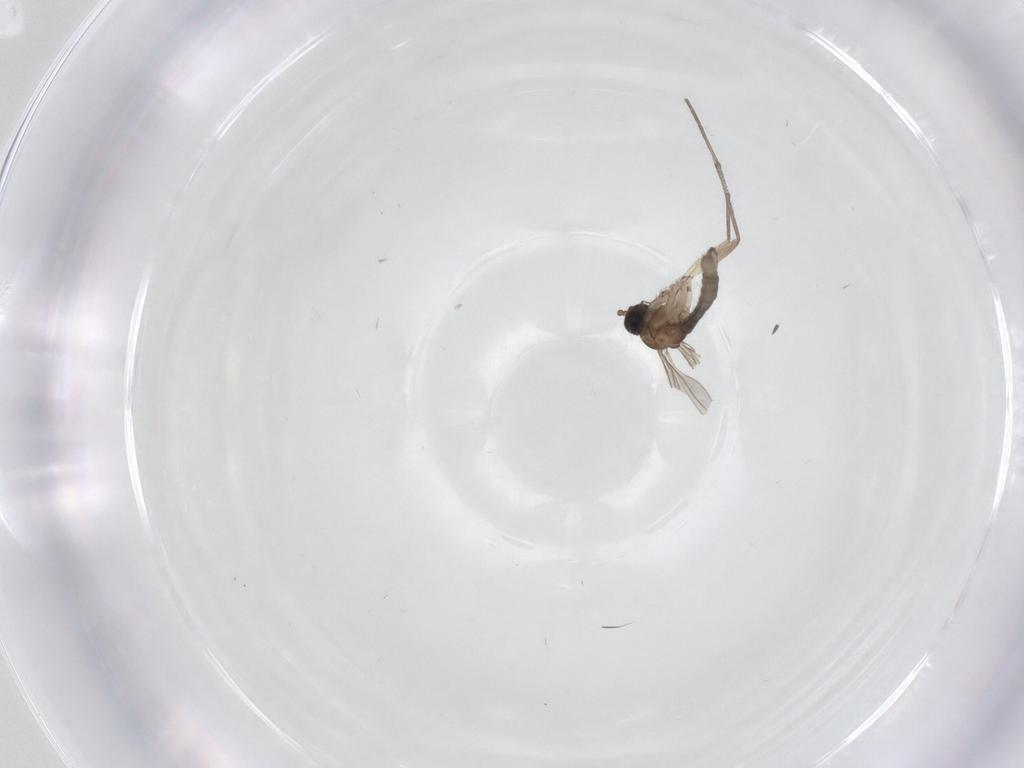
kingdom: Animalia
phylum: Arthropoda
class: Insecta
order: Diptera
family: Sciaridae
